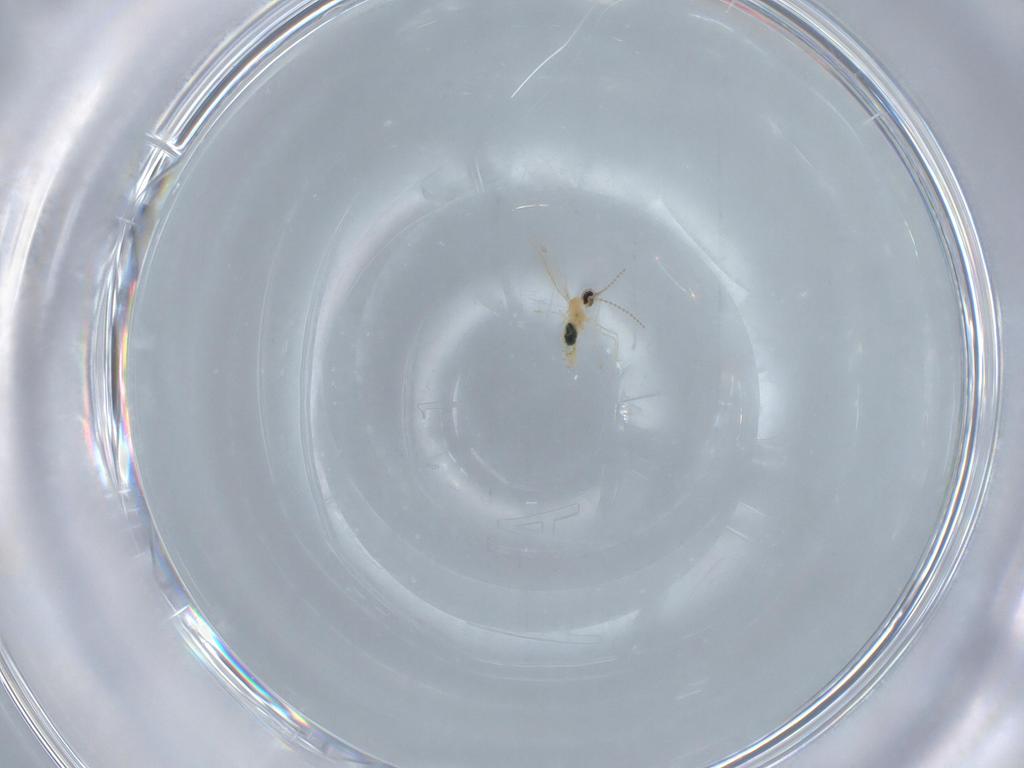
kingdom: Animalia
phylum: Arthropoda
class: Insecta
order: Diptera
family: Cecidomyiidae
